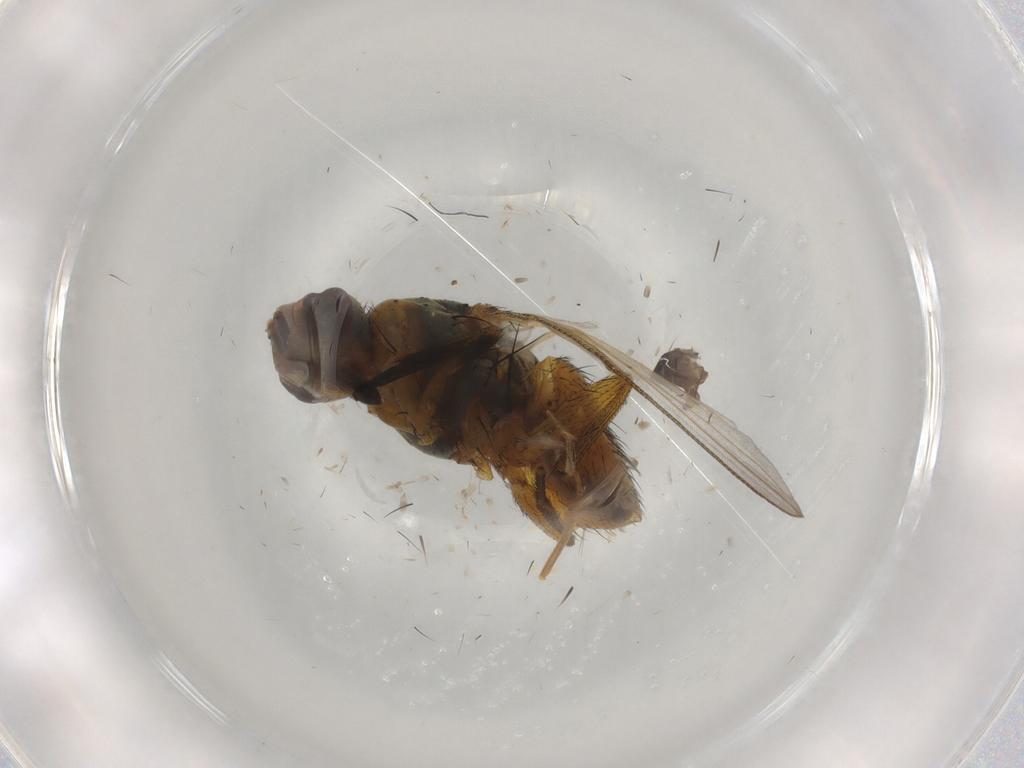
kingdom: Animalia
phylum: Arthropoda
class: Insecta
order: Diptera
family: Muscidae
